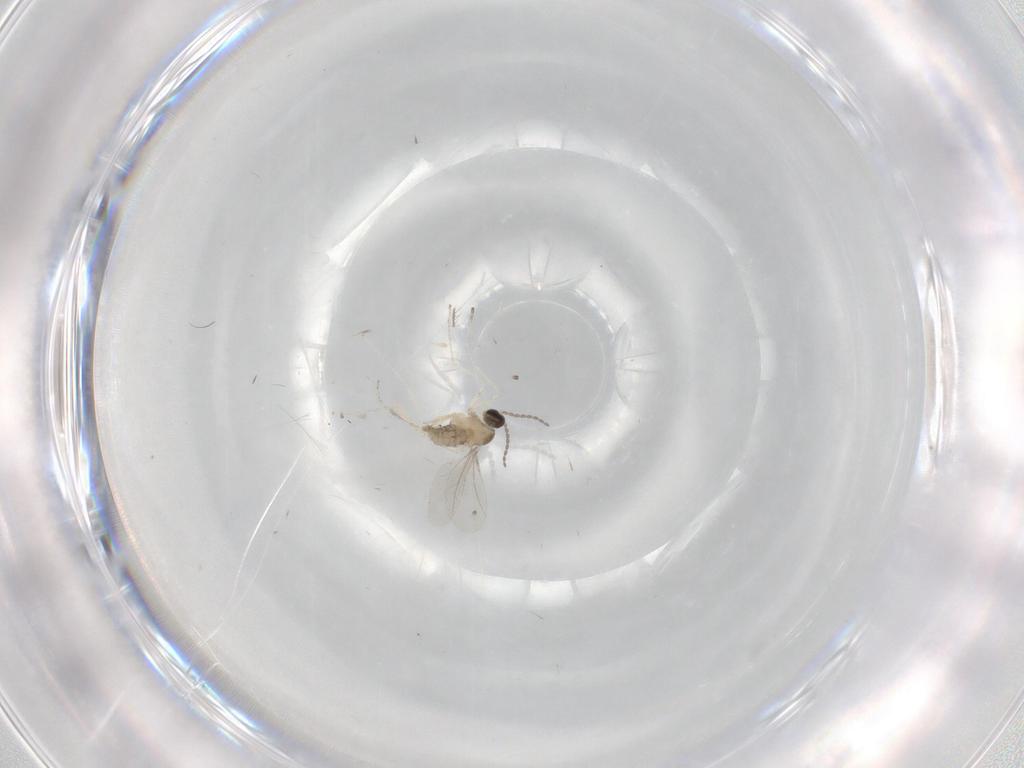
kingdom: Animalia
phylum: Arthropoda
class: Insecta
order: Diptera
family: Cecidomyiidae
